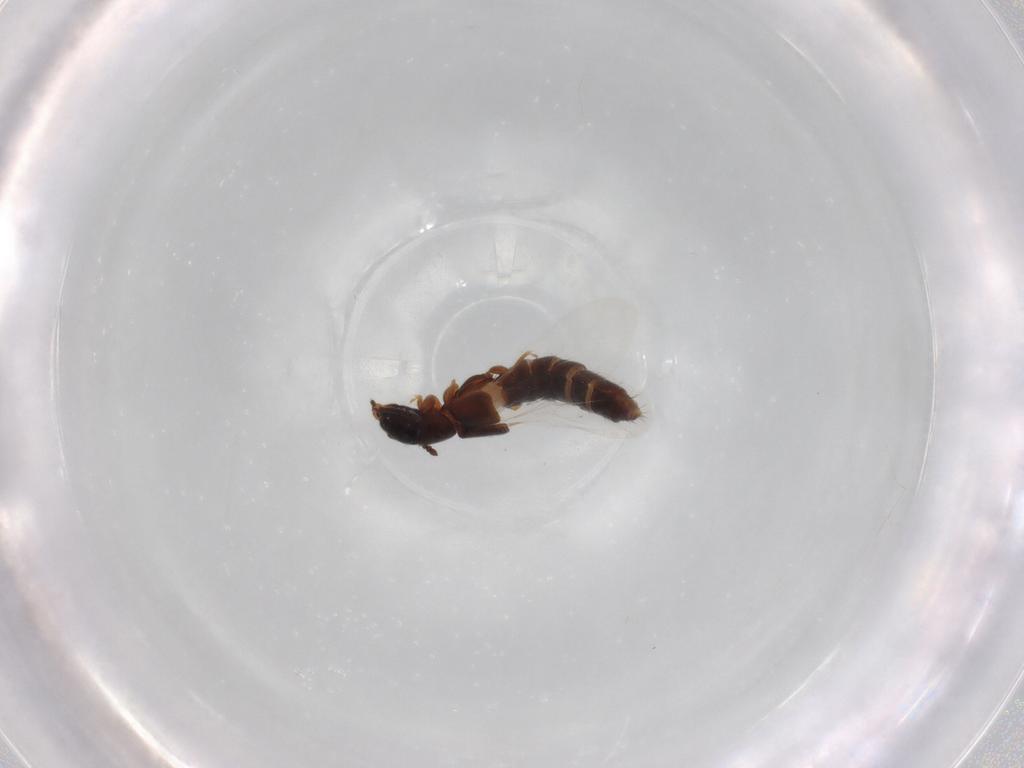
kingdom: Animalia
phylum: Arthropoda
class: Insecta
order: Coleoptera
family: Staphylinidae
